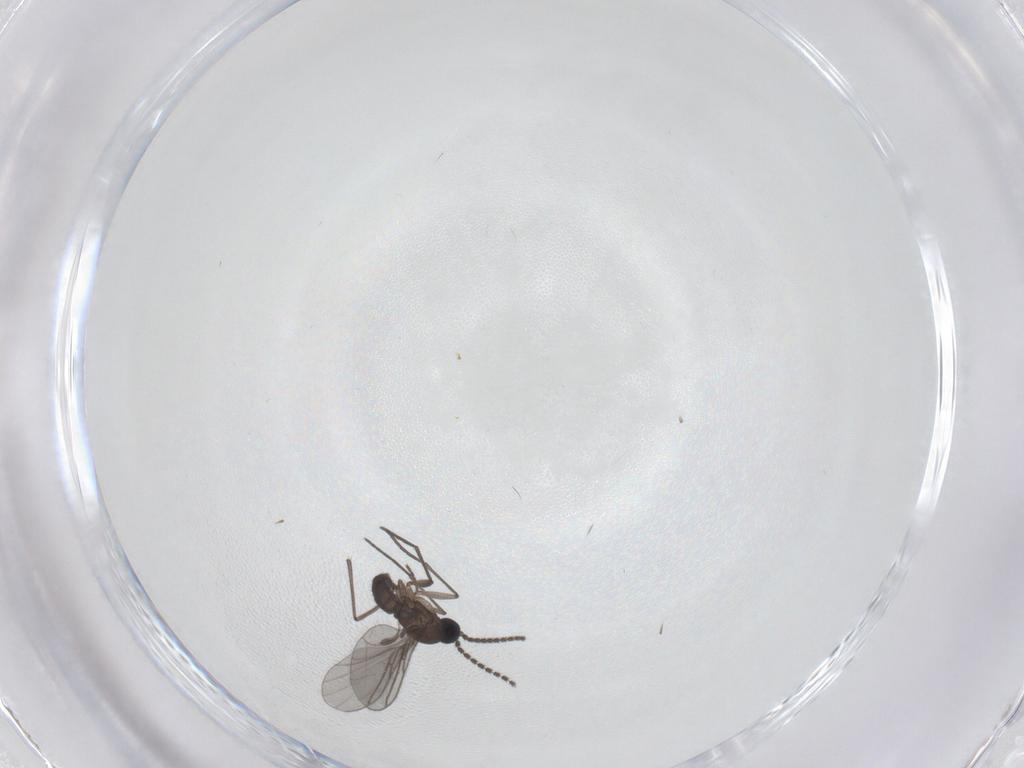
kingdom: Animalia
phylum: Arthropoda
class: Insecta
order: Diptera
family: Cecidomyiidae
